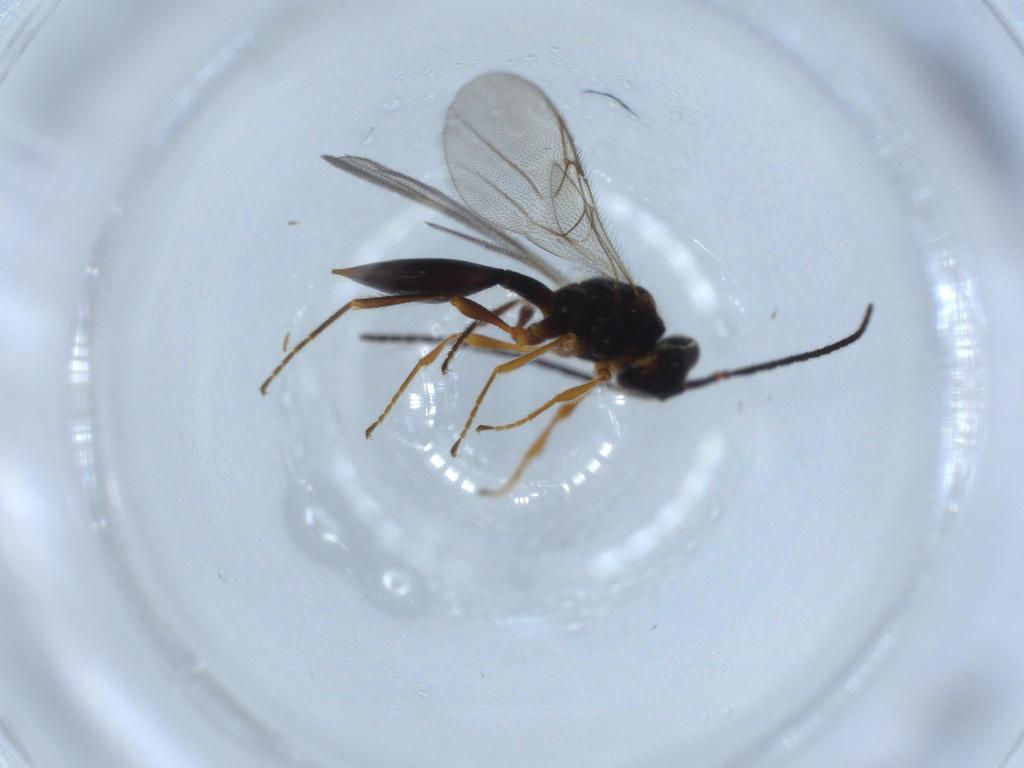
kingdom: Animalia
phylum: Arthropoda
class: Insecta
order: Hymenoptera
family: Diapriidae
